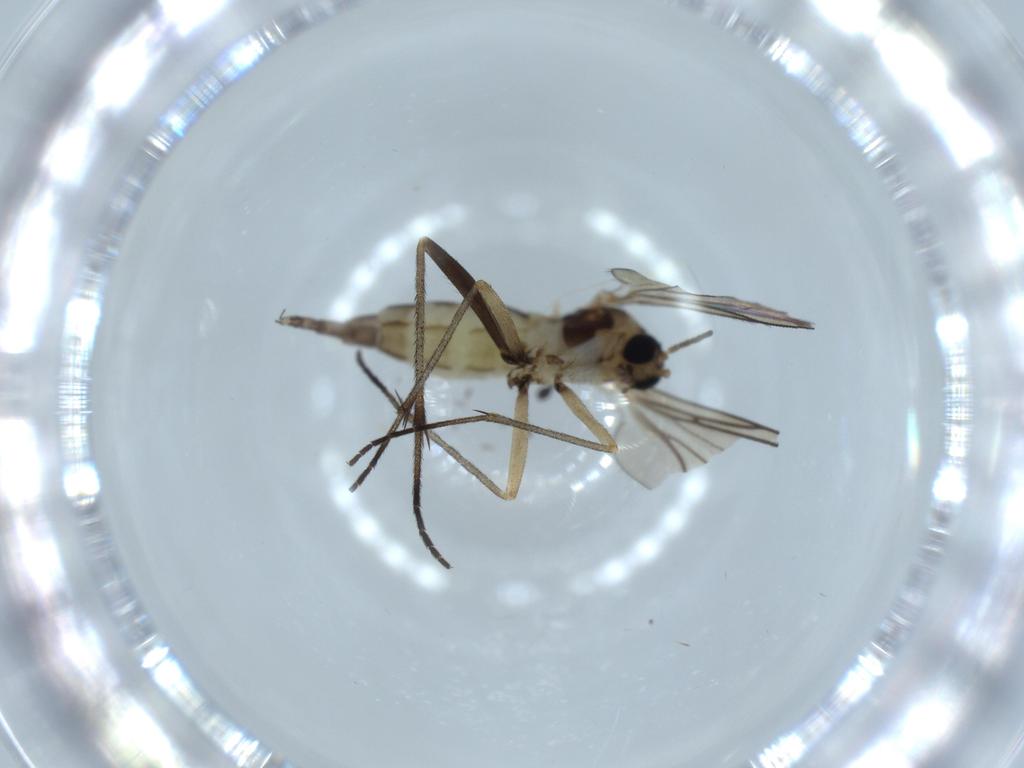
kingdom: Animalia
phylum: Arthropoda
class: Insecta
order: Diptera
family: Sciaridae
